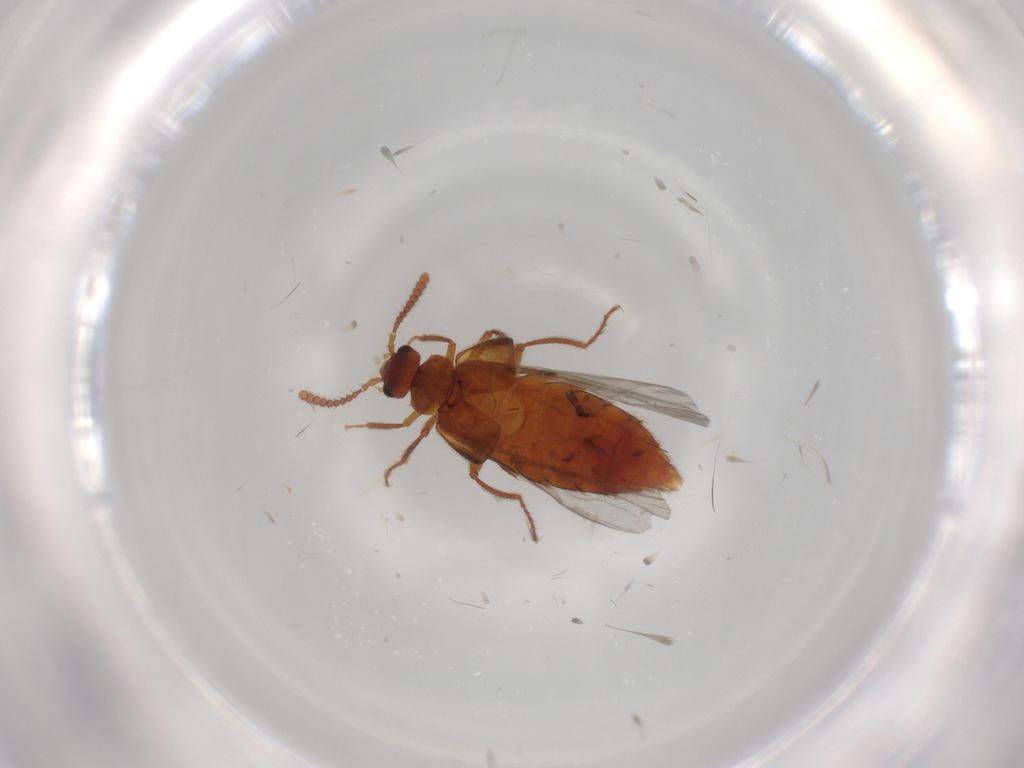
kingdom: Animalia
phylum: Arthropoda
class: Insecta
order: Coleoptera
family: Staphylinidae
